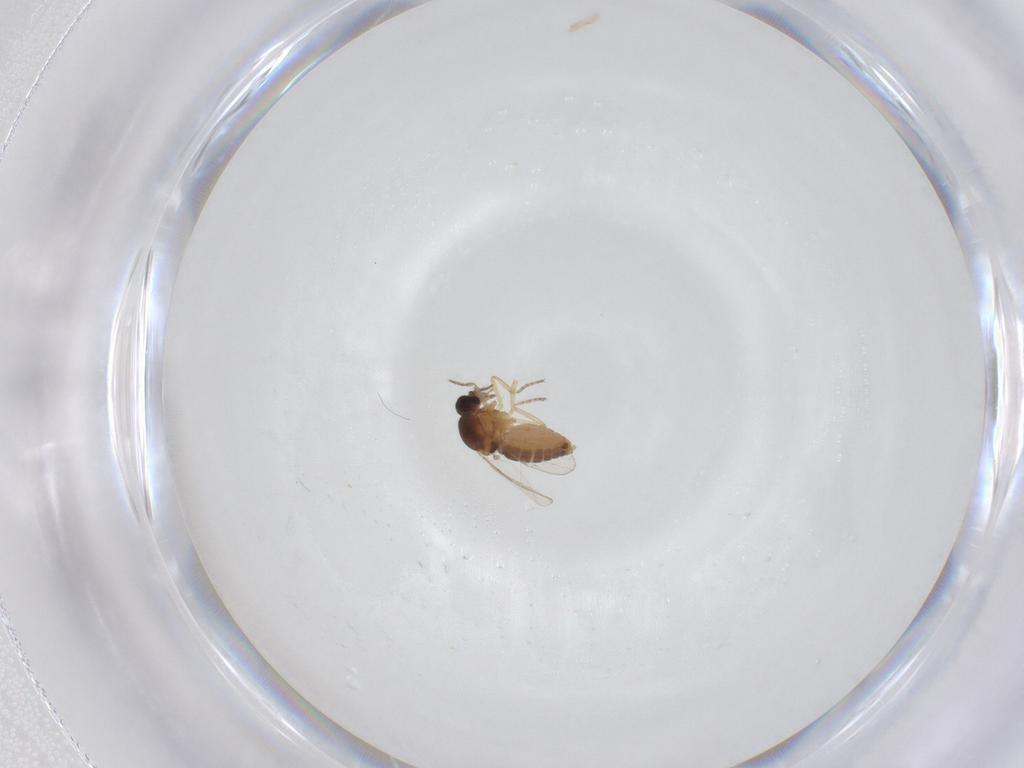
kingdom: Animalia
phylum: Arthropoda
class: Insecta
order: Diptera
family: Ceratopogonidae
